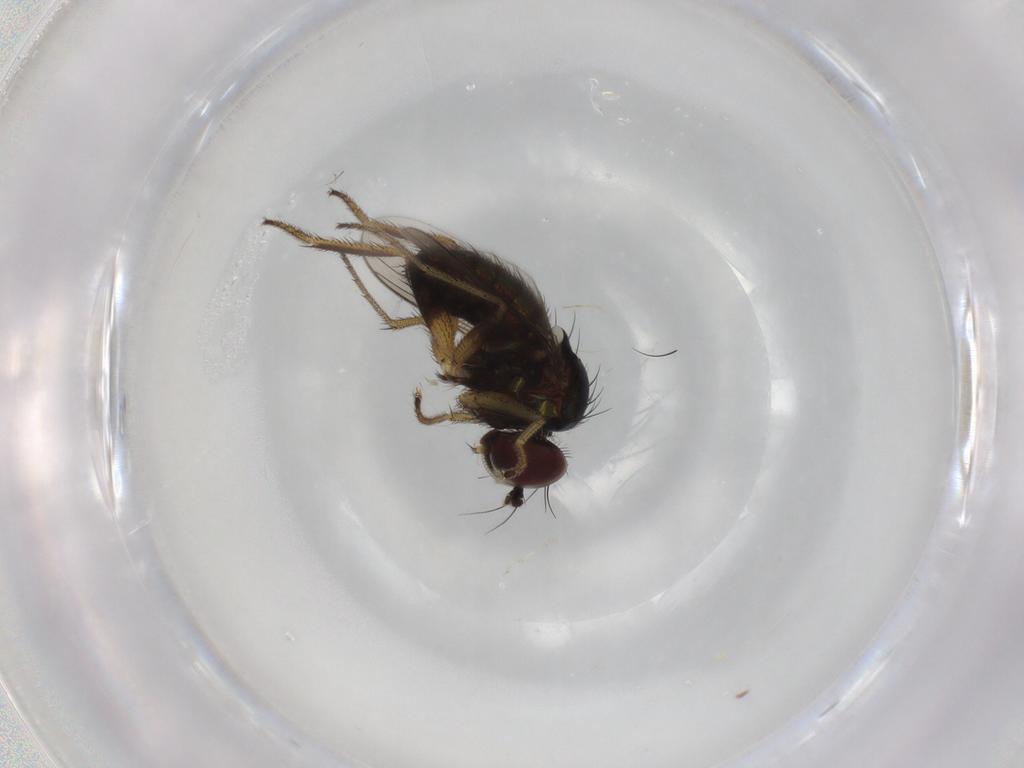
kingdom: Animalia
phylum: Arthropoda
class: Insecta
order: Diptera
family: Dolichopodidae
